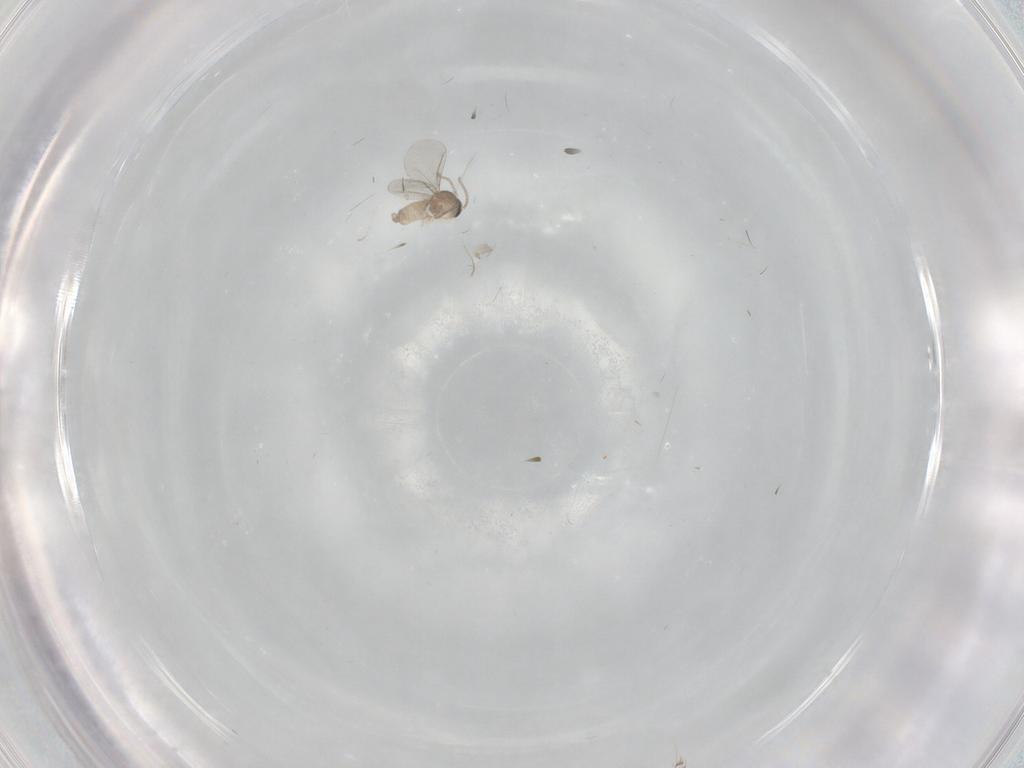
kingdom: Animalia
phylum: Arthropoda
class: Insecta
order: Diptera
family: Cecidomyiidae
